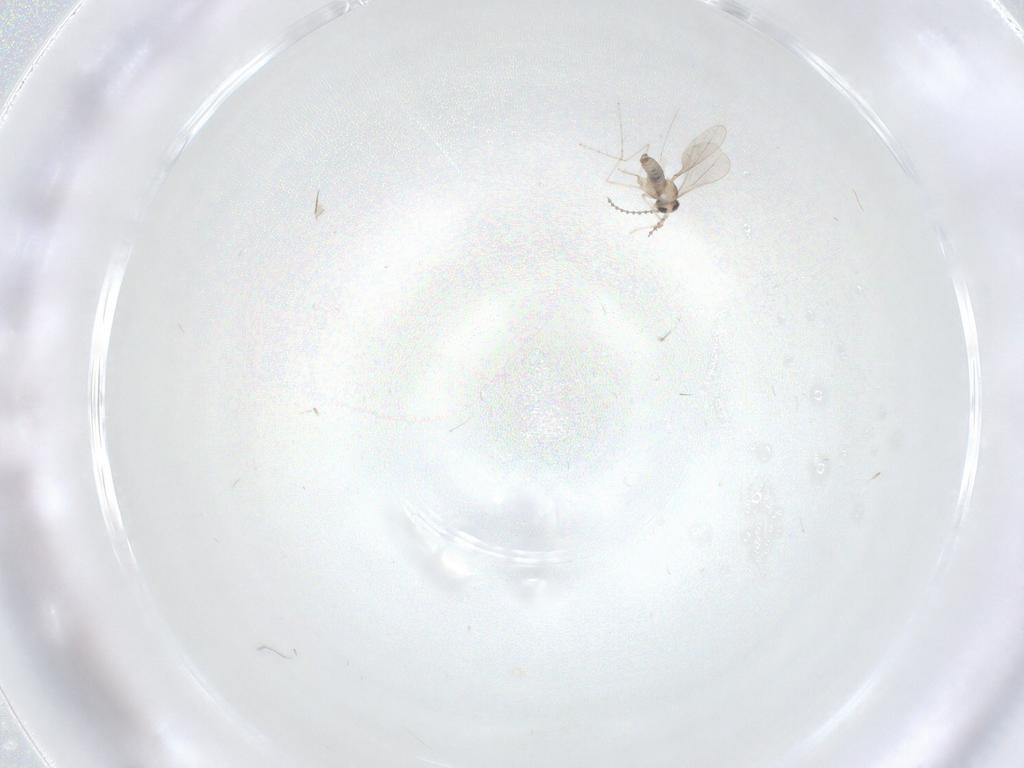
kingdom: Animalia
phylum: Arthropoda
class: Insecta
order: Diptera
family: Cecidomyiidae
